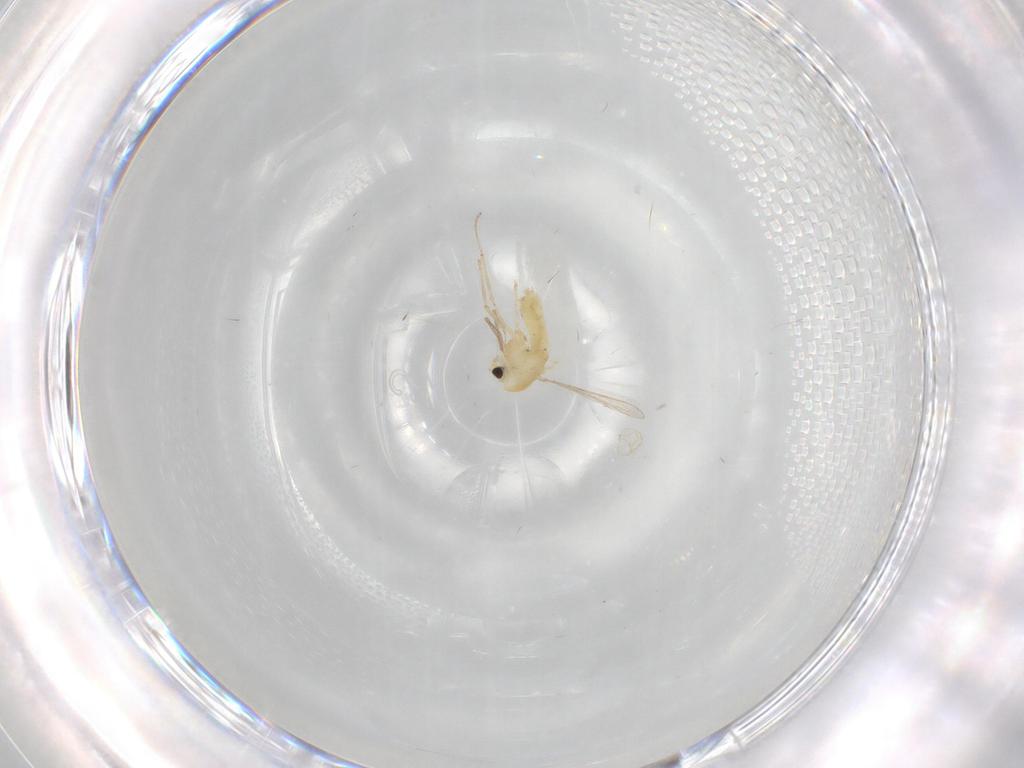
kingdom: Animalia
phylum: Arthropoda
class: Insecta
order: Diptera
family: Chironomidae
